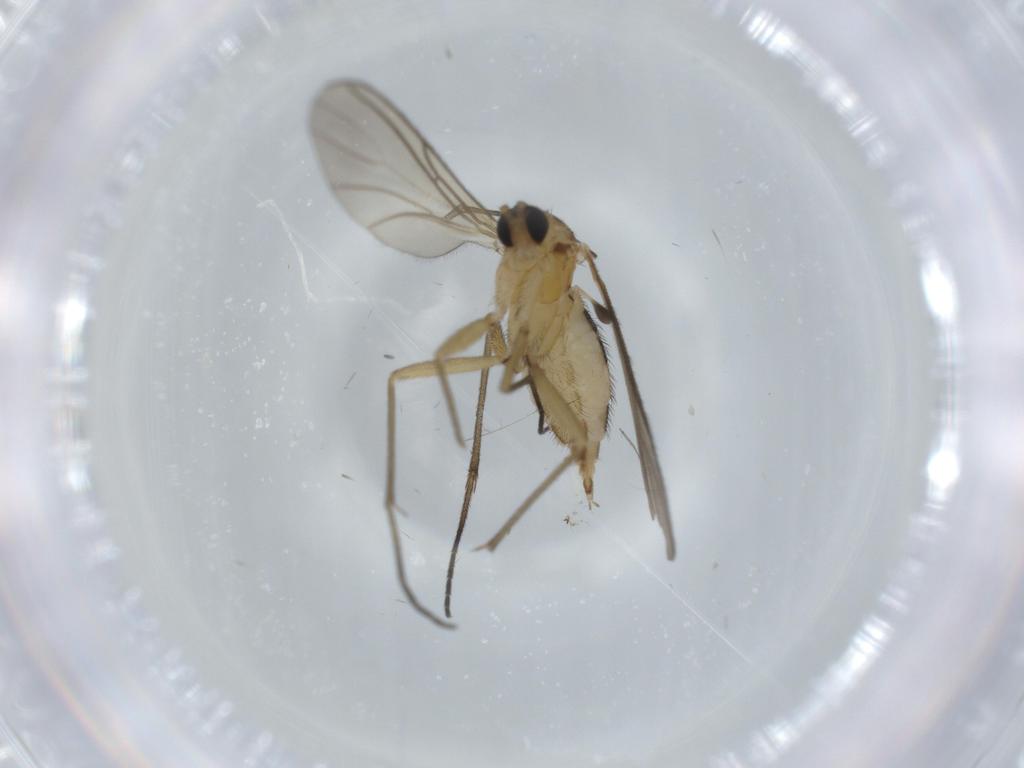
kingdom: Animalia
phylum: Arthropoda
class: Insecta
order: Diptera
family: Sciaridae
